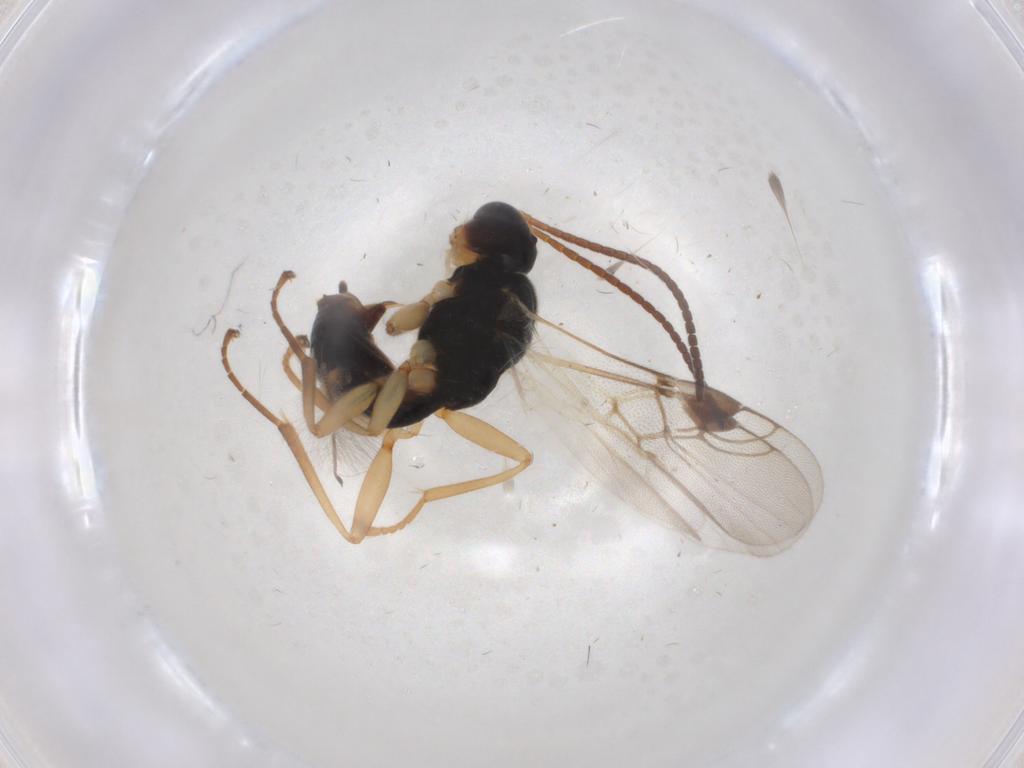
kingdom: Animalia
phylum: Arthropoda
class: Insecta
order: Hymenoptera
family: Braconidae
